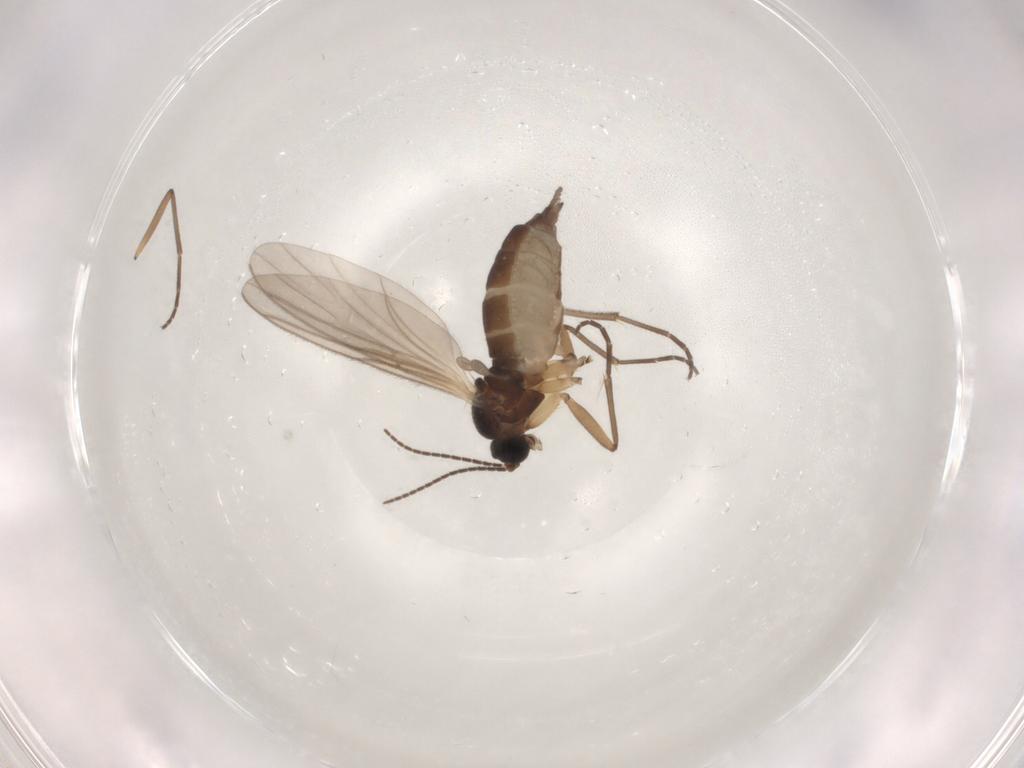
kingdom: Animalia
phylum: Arthropoda
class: Insecta
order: Diptera
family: Sciaridae
